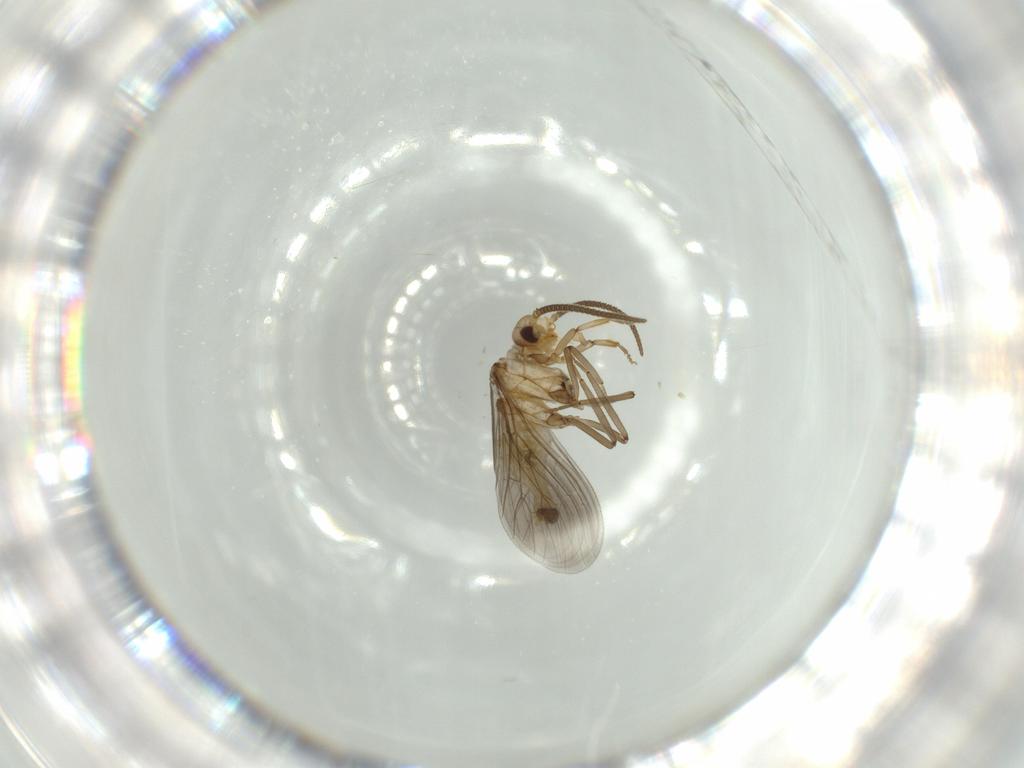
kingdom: Animalia
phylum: Arthropoda
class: Insecta
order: Neuroptera
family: Coniopterygidae
